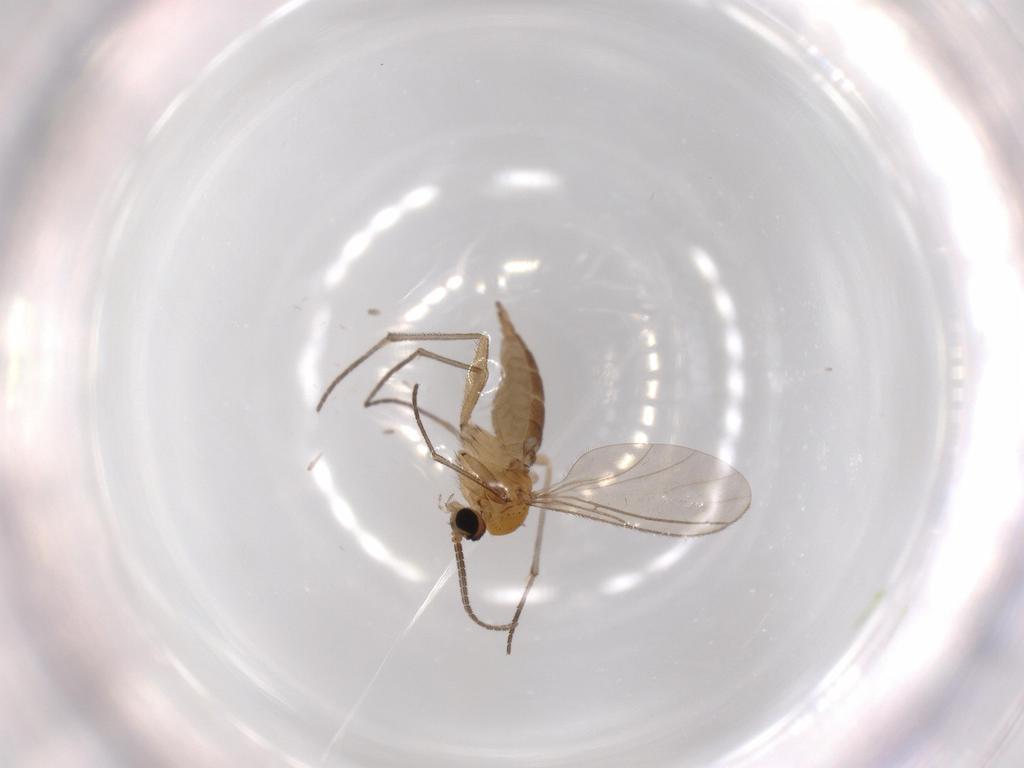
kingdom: Animalia
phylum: Arthropoda
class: Insecta
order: Diptera
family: Sciaridae
